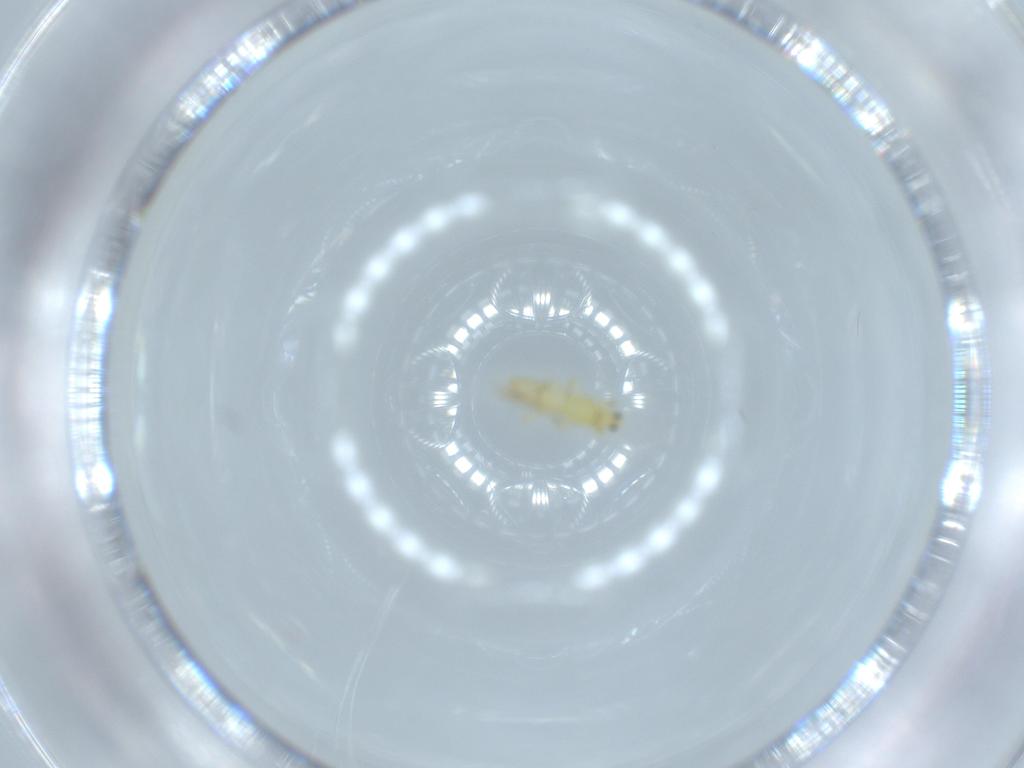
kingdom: Animalia
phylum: Arthropoda
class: Insecta
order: Thysanoptera
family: Thripidae
